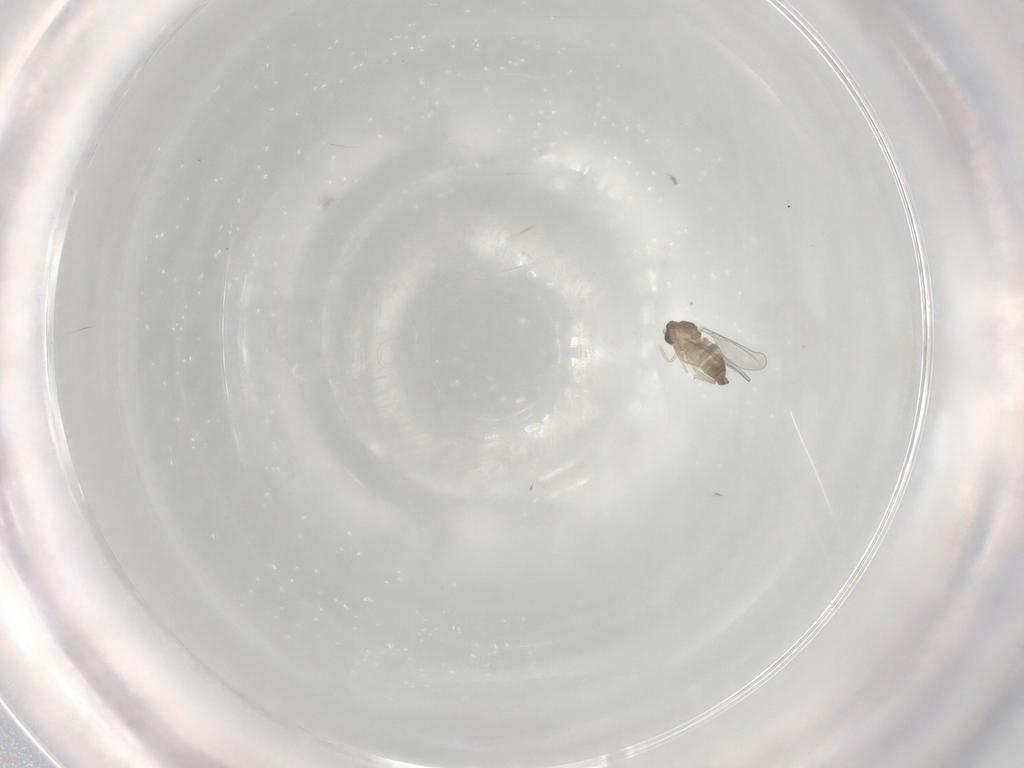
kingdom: Animalia
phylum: Arthropoda
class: Insecta
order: Diptera
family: Cecidomyiidae
